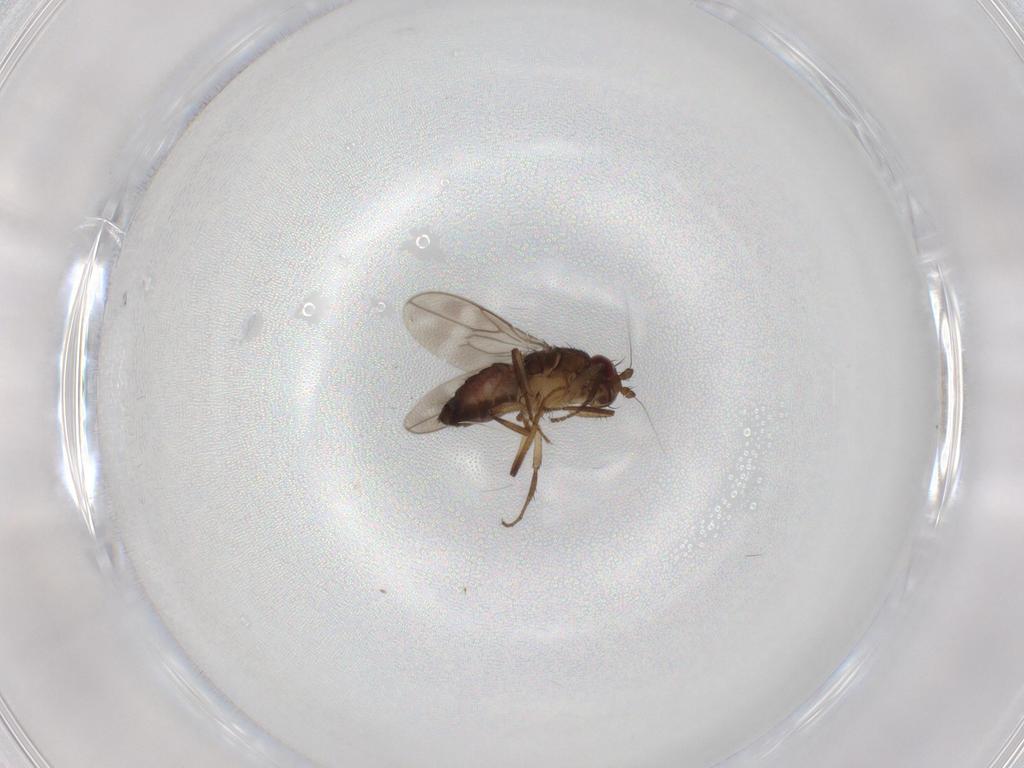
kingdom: Animalia
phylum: Arthropoda
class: Insecta
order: Diptera
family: Sphaeroceridae
